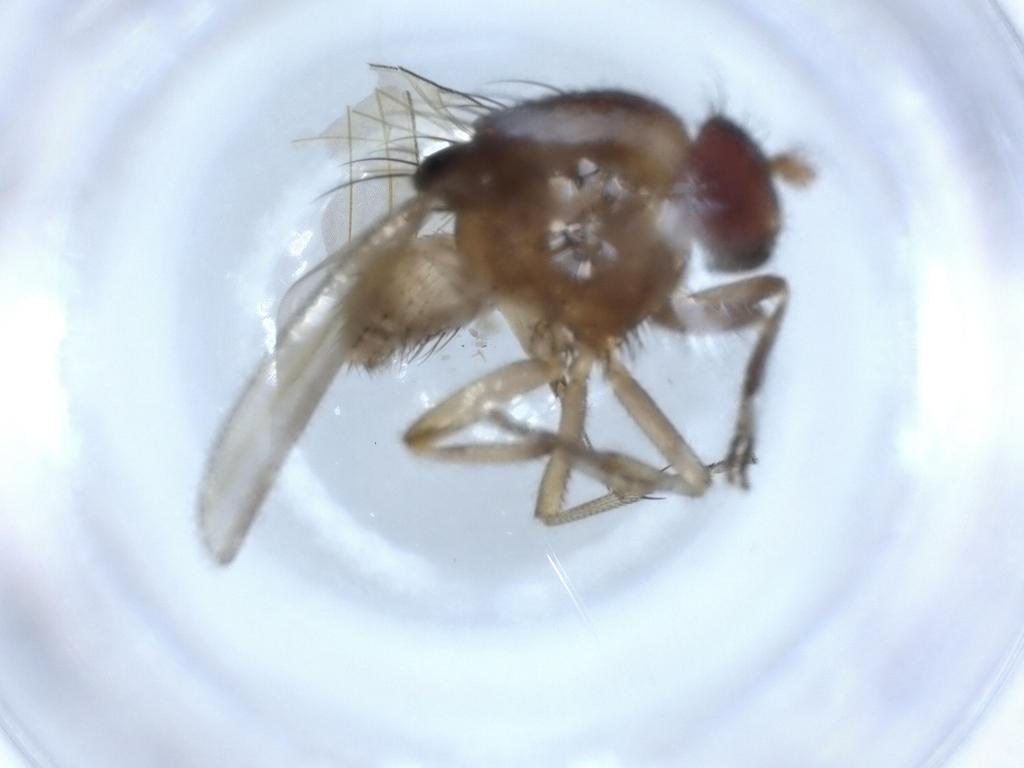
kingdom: Animalia
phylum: Arthropoda
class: Insecta
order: Diptera
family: Lauxaniidae
